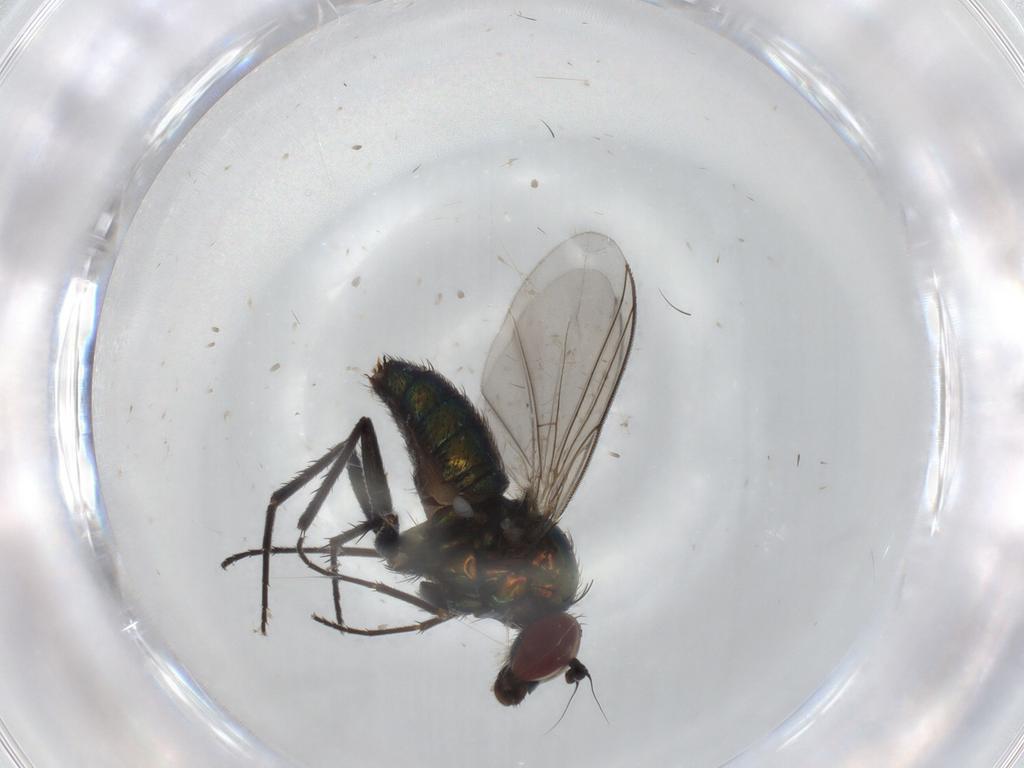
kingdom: Animalia
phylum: Arthropoda
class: Insecta
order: Diptera
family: Dolichopodidae
